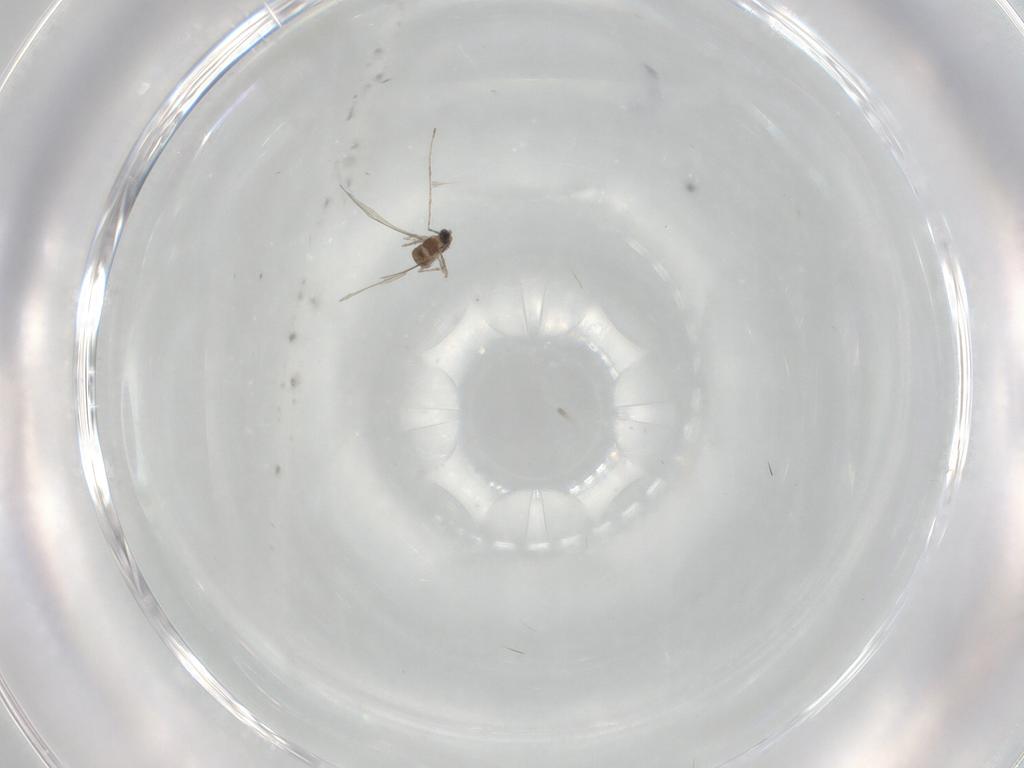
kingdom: Animalia
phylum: Arthropoda
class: Insecta
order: Diptera
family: Cecidomyiidae
